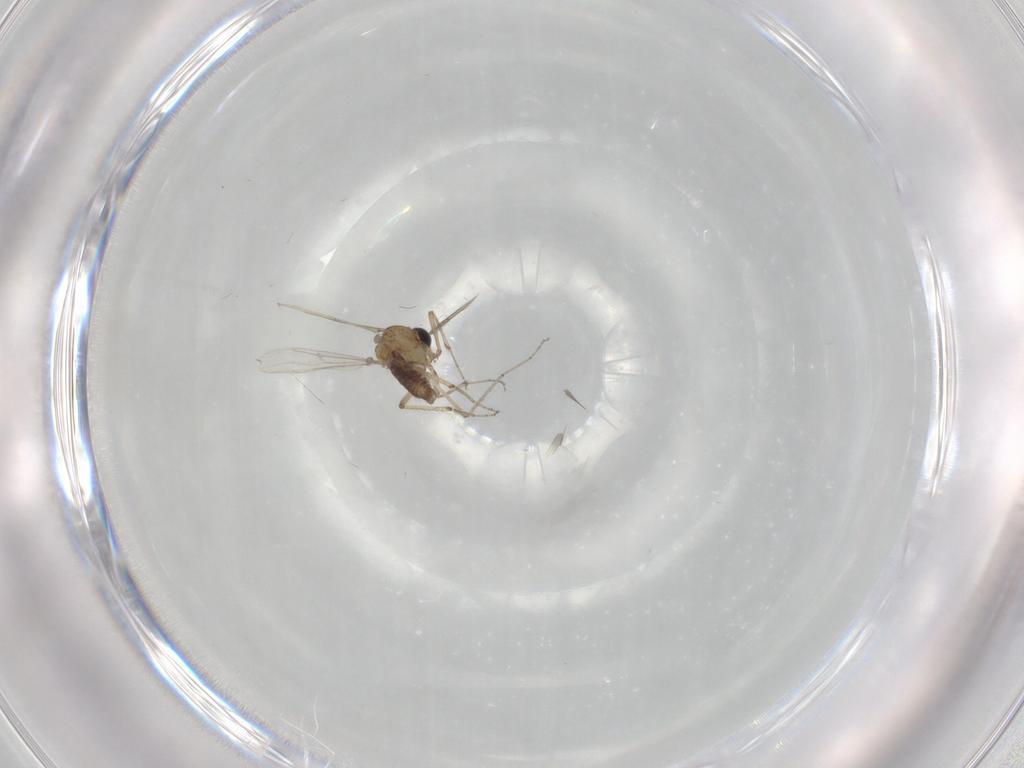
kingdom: Animalia
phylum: Arthropoda
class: Insecta
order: Diptera
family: Ceratopogonidae
